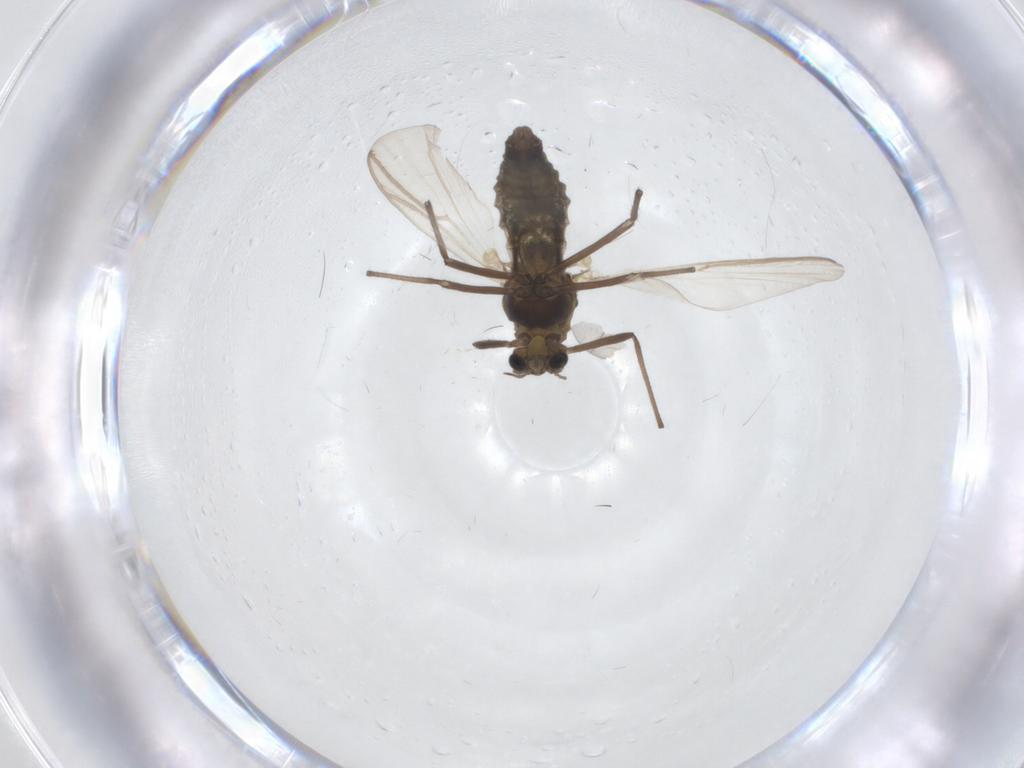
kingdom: Animalia
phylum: Arthropoda
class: Insecta
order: Diptera
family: Chironomidae
